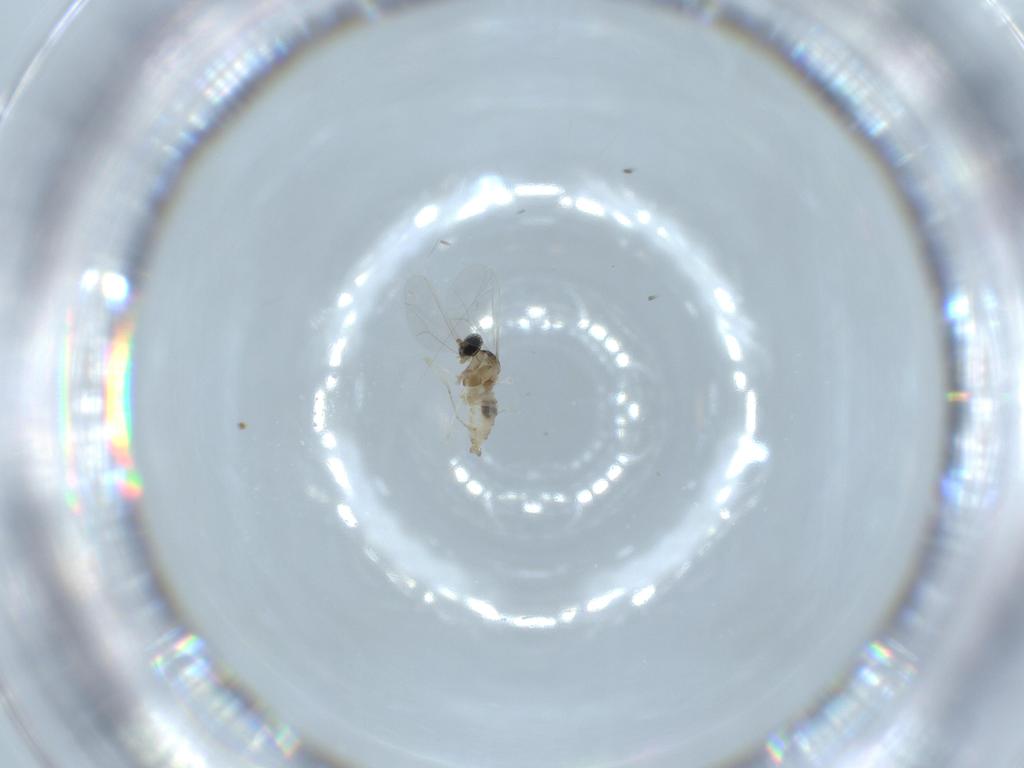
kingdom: Animalia
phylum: Arthropoda
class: Insecta
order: Diptera
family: Cecidomyiidae
